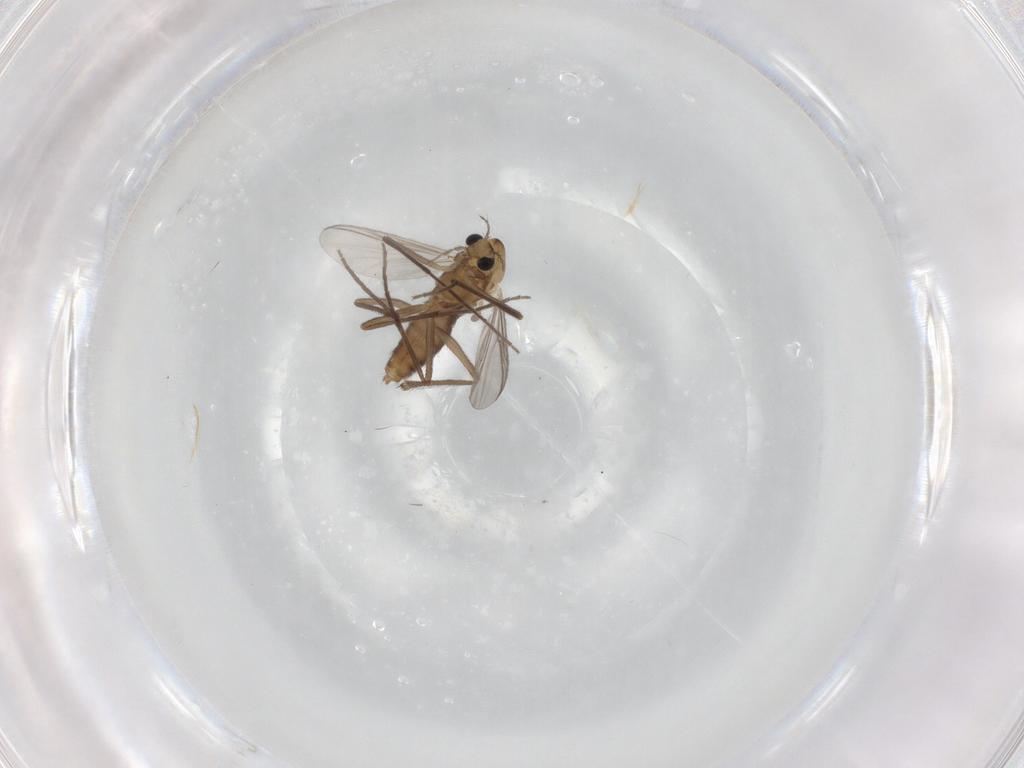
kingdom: Animalia
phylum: Arthropoda
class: Insecta
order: Diptera
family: Chironomidae
